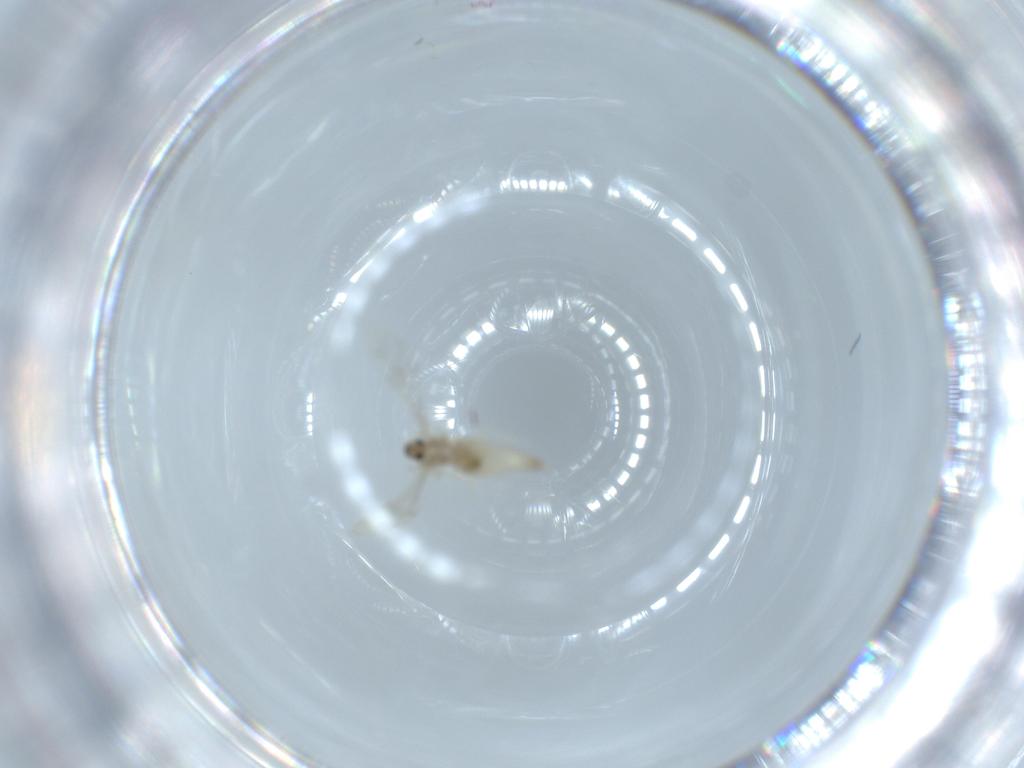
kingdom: Animalia
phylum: Arthropoda
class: Insecta
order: Diptera
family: Cecidomyiidae
